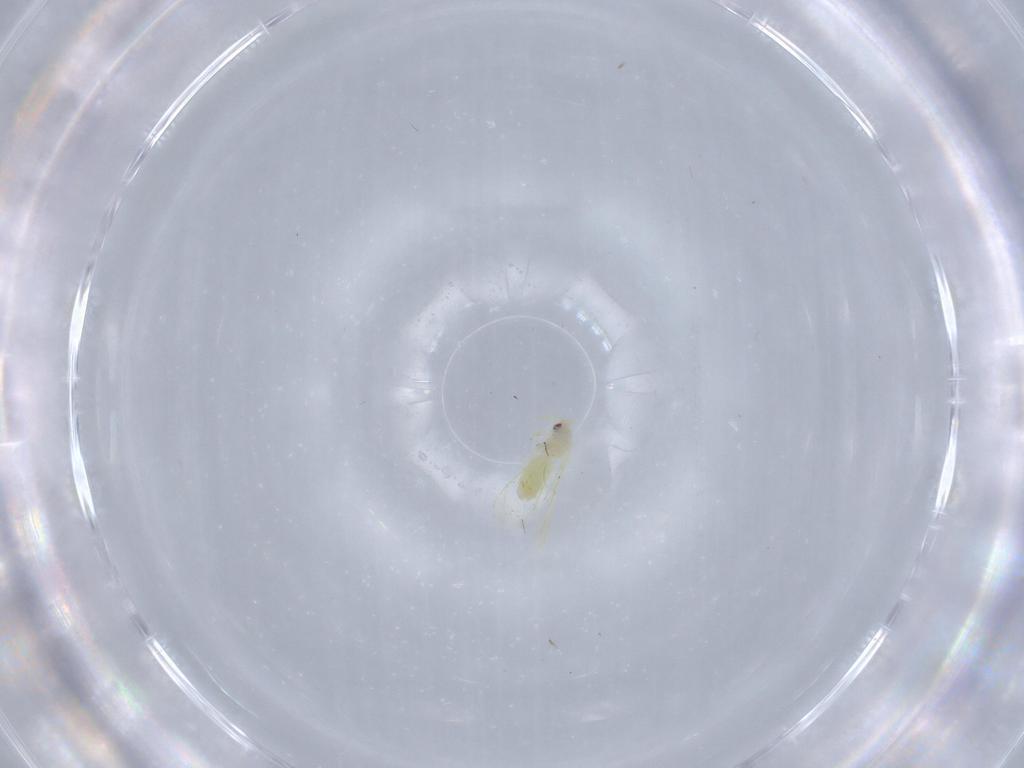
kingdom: Animalia
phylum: Arthropoda
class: Insecta
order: Hemiptera
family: Aleyrodidae
